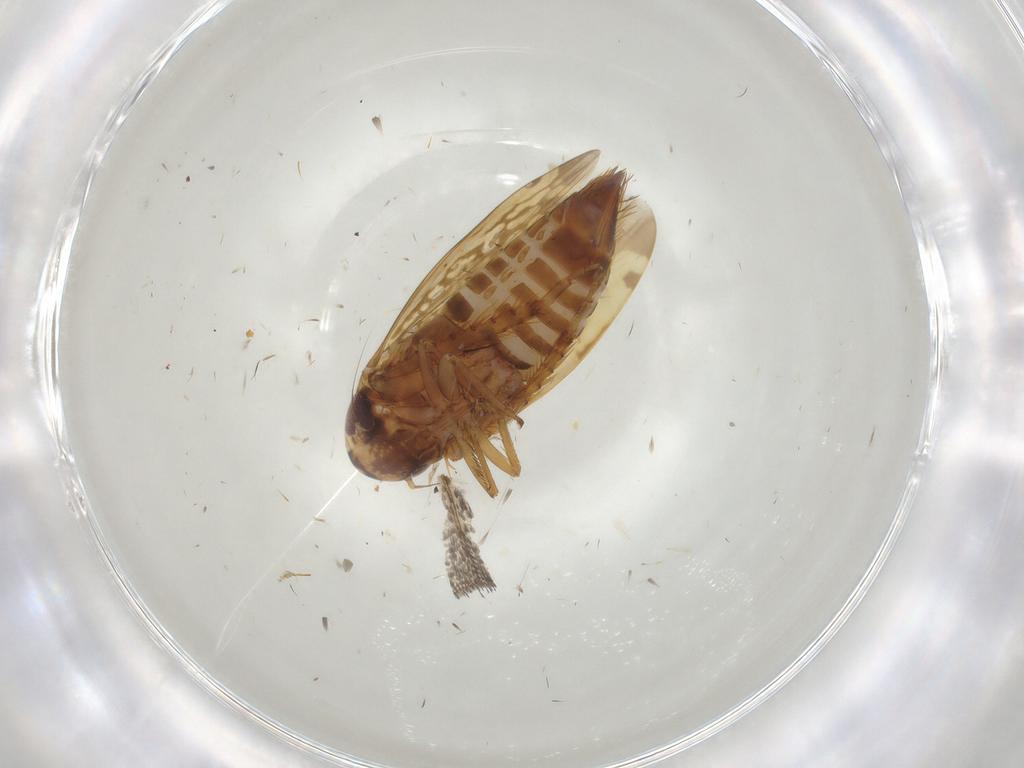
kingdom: Animalia
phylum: Arthropoda
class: Insecta
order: Hemiptera
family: Cicadellidae
